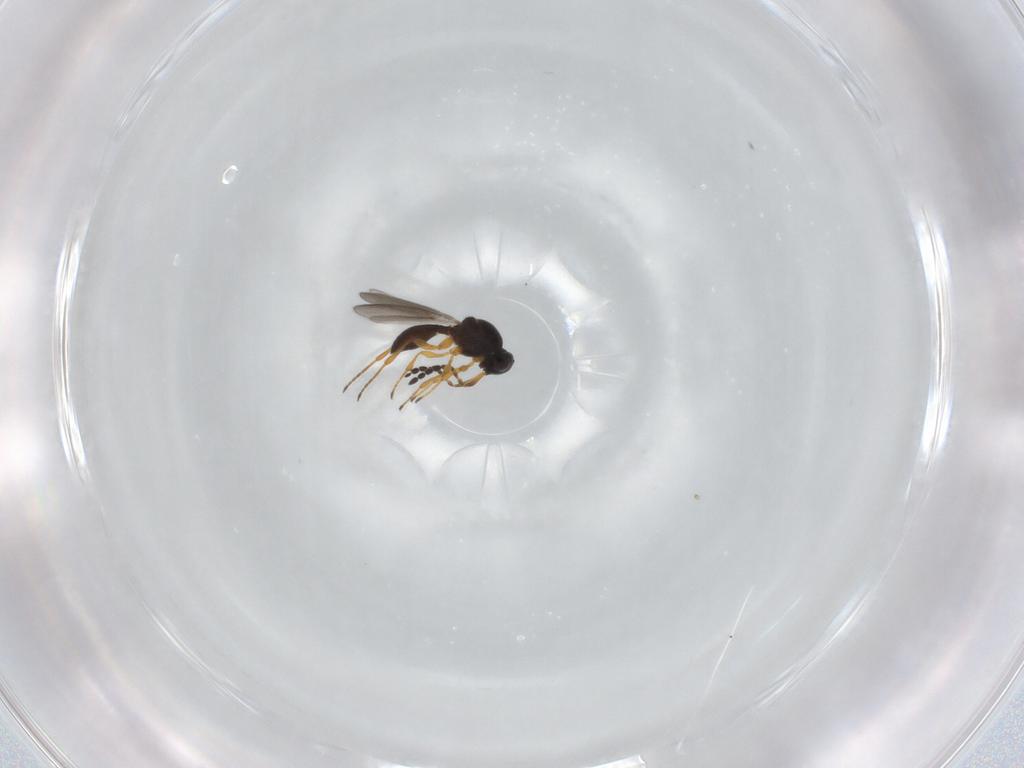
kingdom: Animalia
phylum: Arthropoda
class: Insecta
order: Hymenoptera
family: Platygastridae
